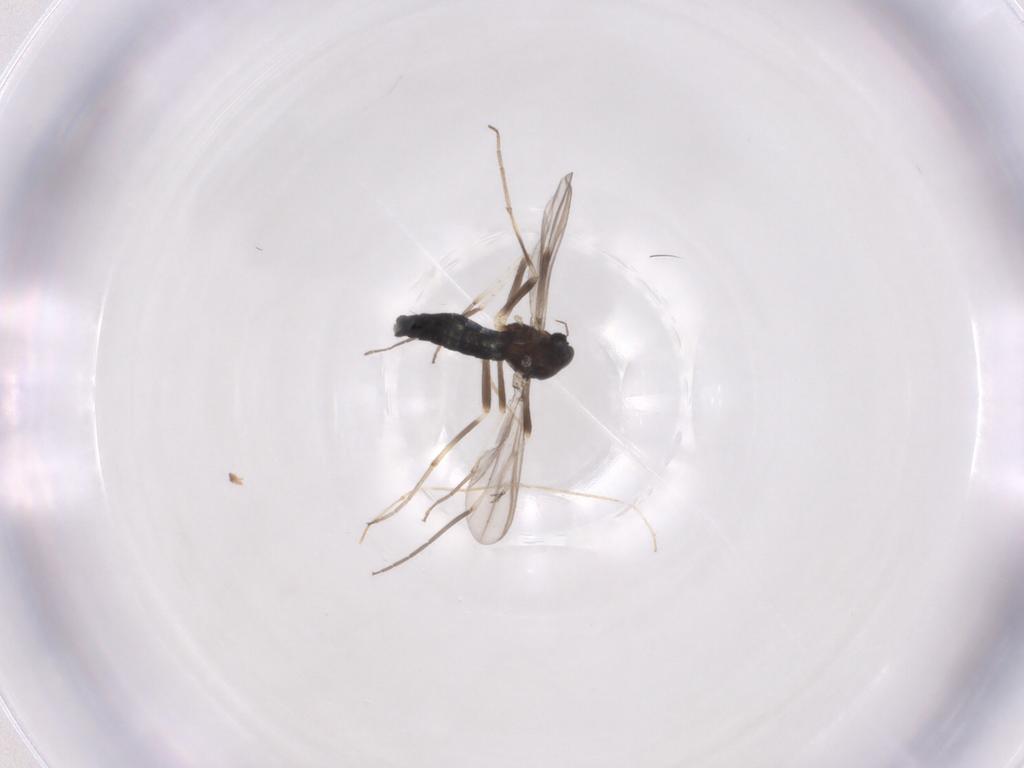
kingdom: Animalia
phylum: Arthropoda
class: Insecta
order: Diptera
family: Chironomidae
